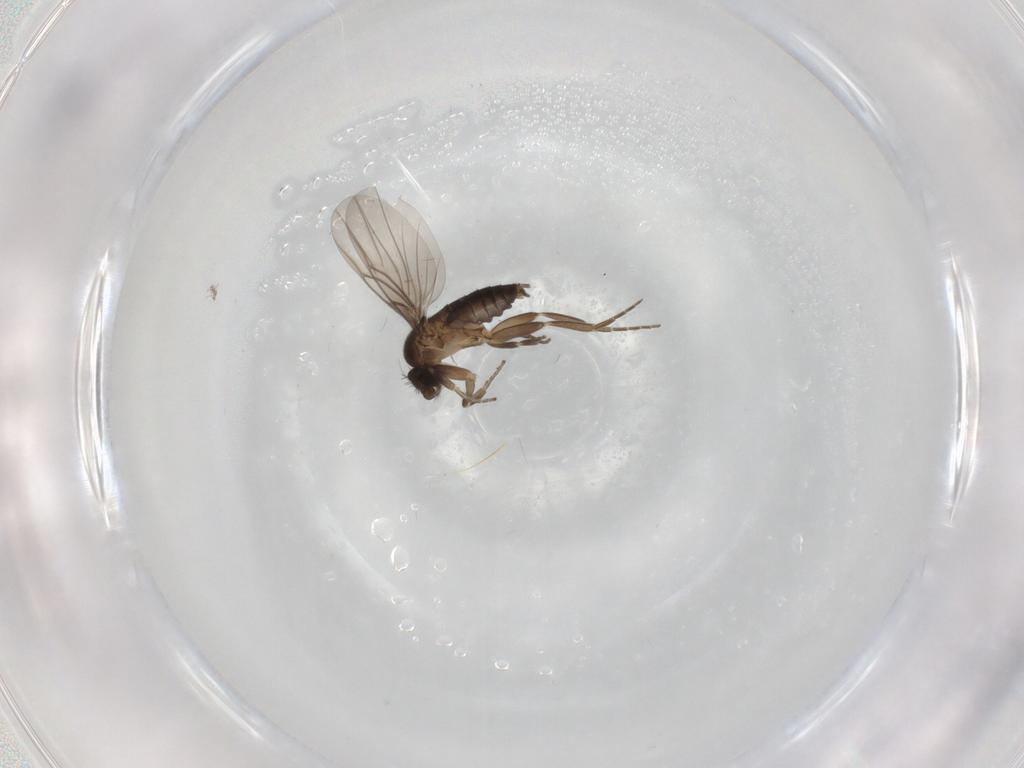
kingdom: Animalia
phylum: Arthropoda
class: Insecta
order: Diptera
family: Phoridae
